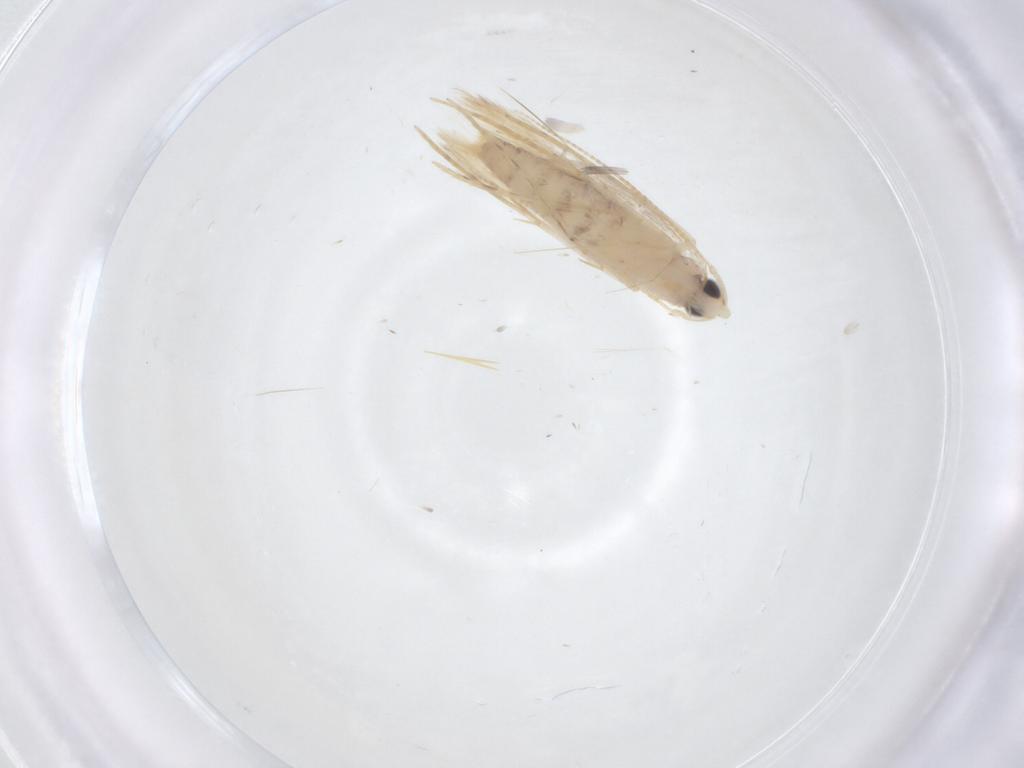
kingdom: Animalia
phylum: Arthropoda
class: Insecta
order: Lepidoptera
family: Tineidae
